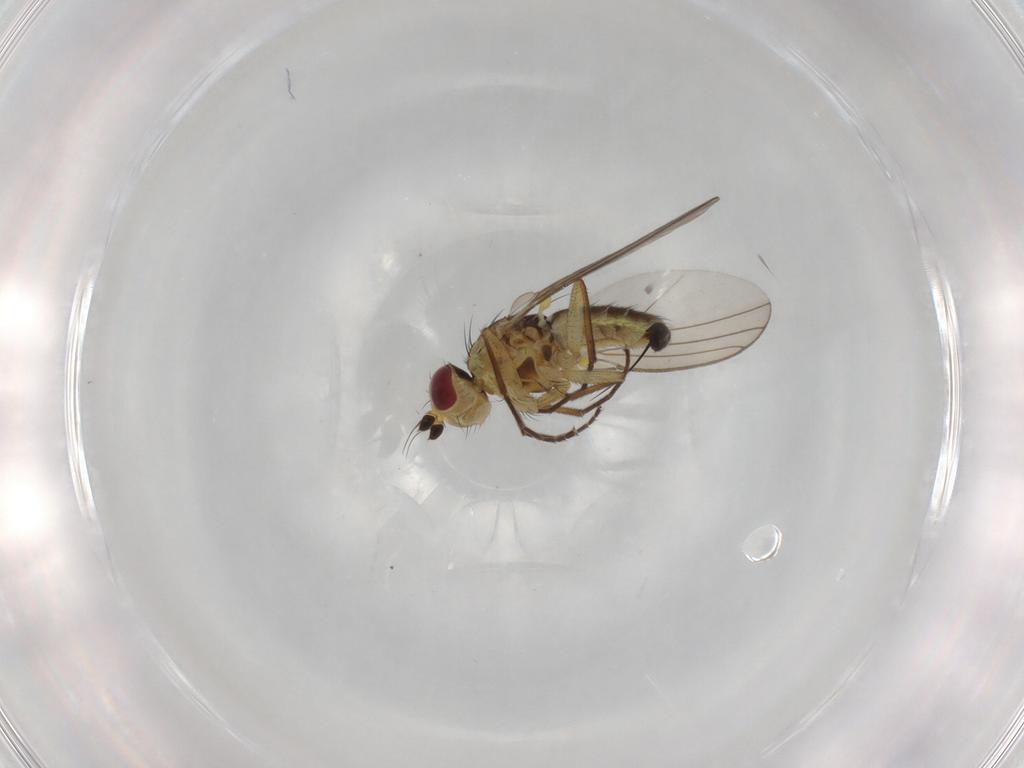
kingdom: Animalia
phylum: Arthropoda
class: Insecta
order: Diptera
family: Agromyzidae
